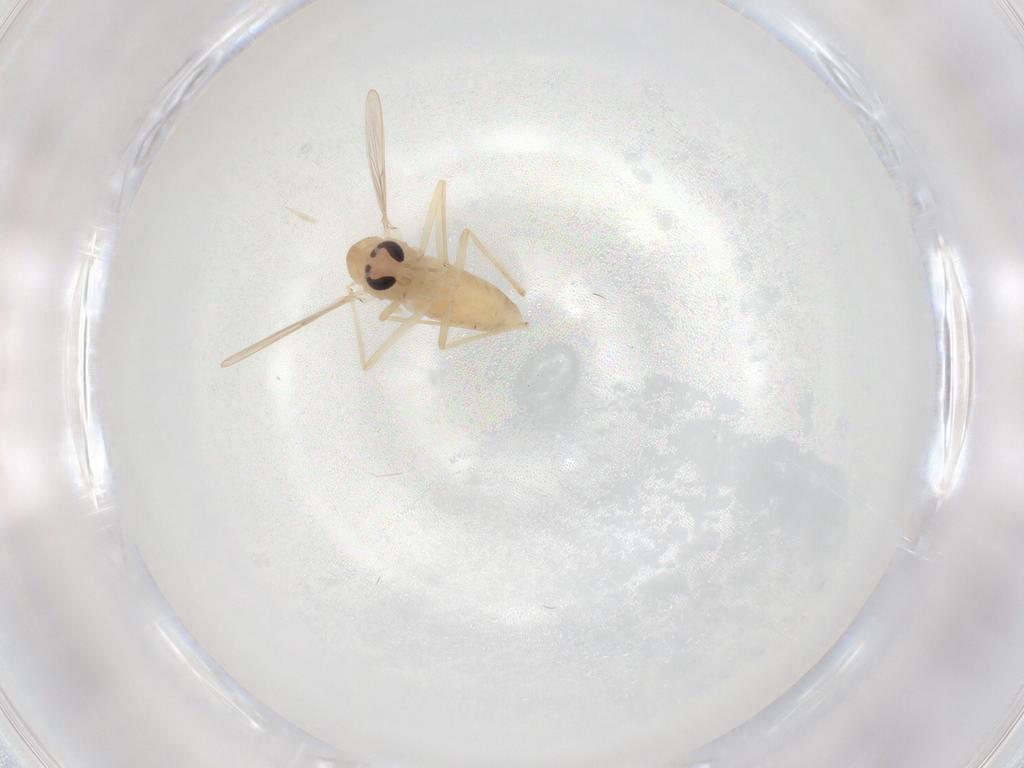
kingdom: Animalia
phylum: Arthropoda
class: Insecta
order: Diptera
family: Chironomidae
